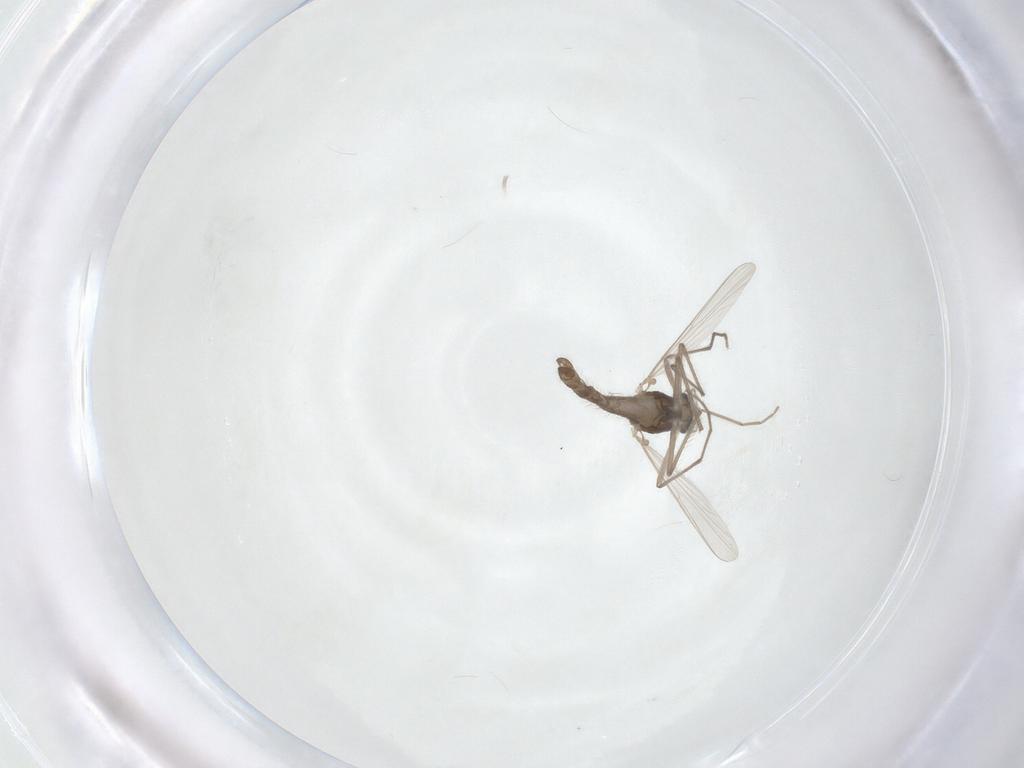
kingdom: Animalia
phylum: Arthropoda
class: Insecta
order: Diptera
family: Chironomidae
